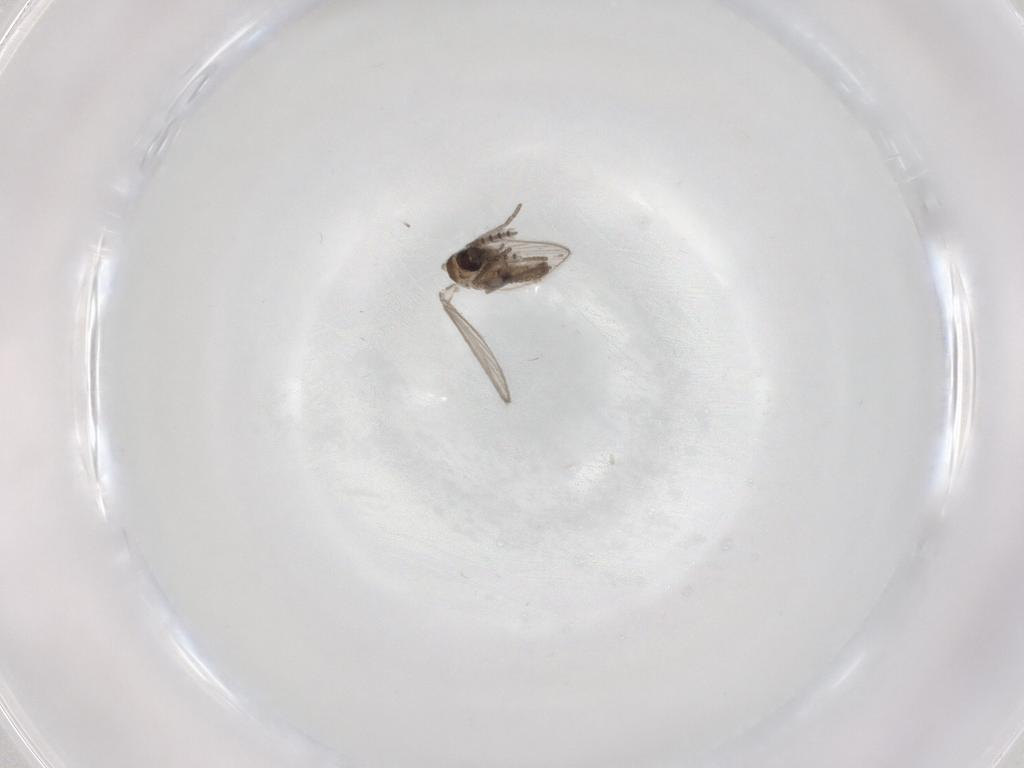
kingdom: Animalia
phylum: Arthropoda
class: Insecta
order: Diptera
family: Psychodidae
